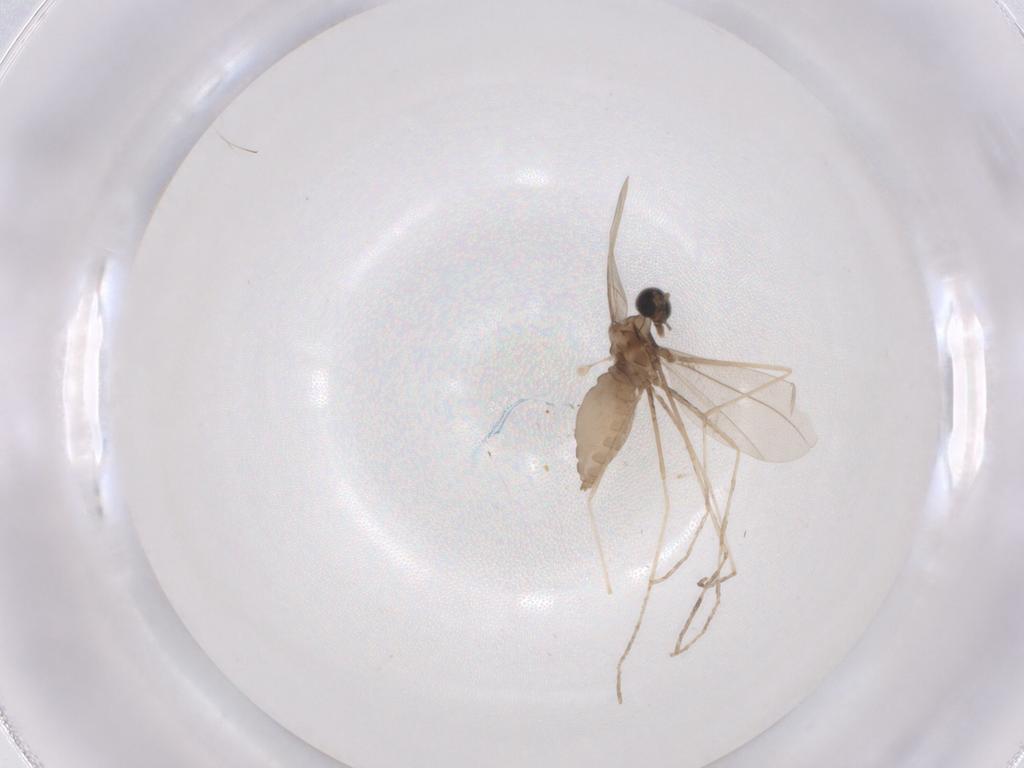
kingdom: Animalia
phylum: Arthropoda
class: Insecta
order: Diptera
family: Cecidomyiidae
